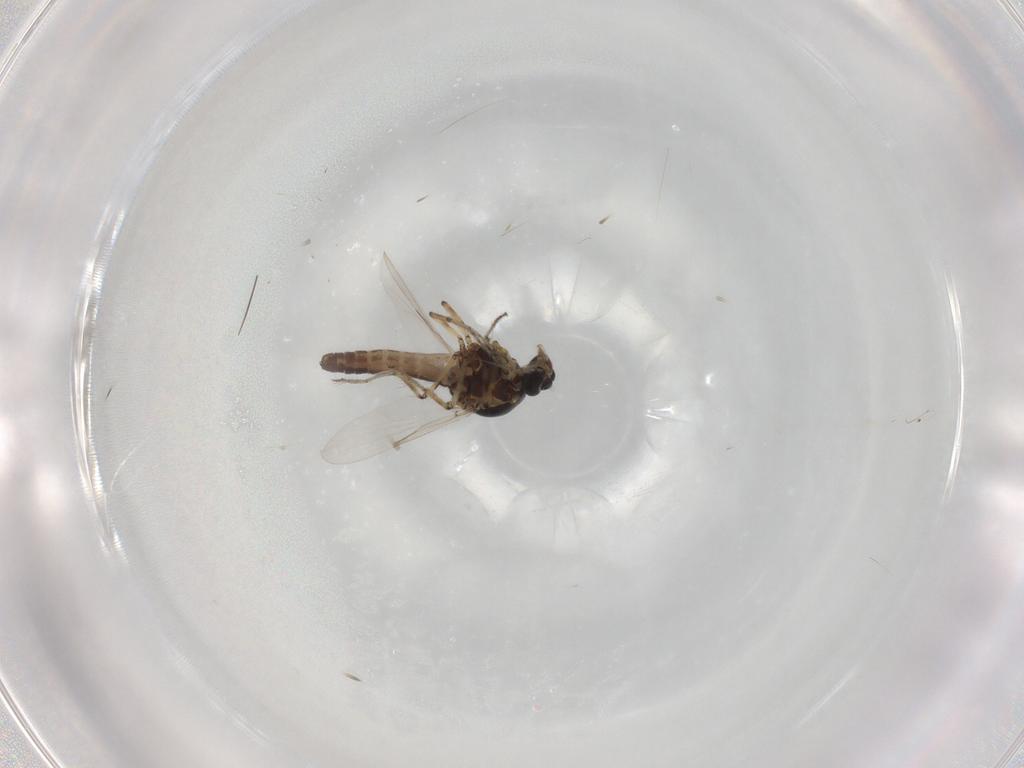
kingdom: Animalia
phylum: Arthropoda
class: Insecta
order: Diptera
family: Ceratopogonidae
